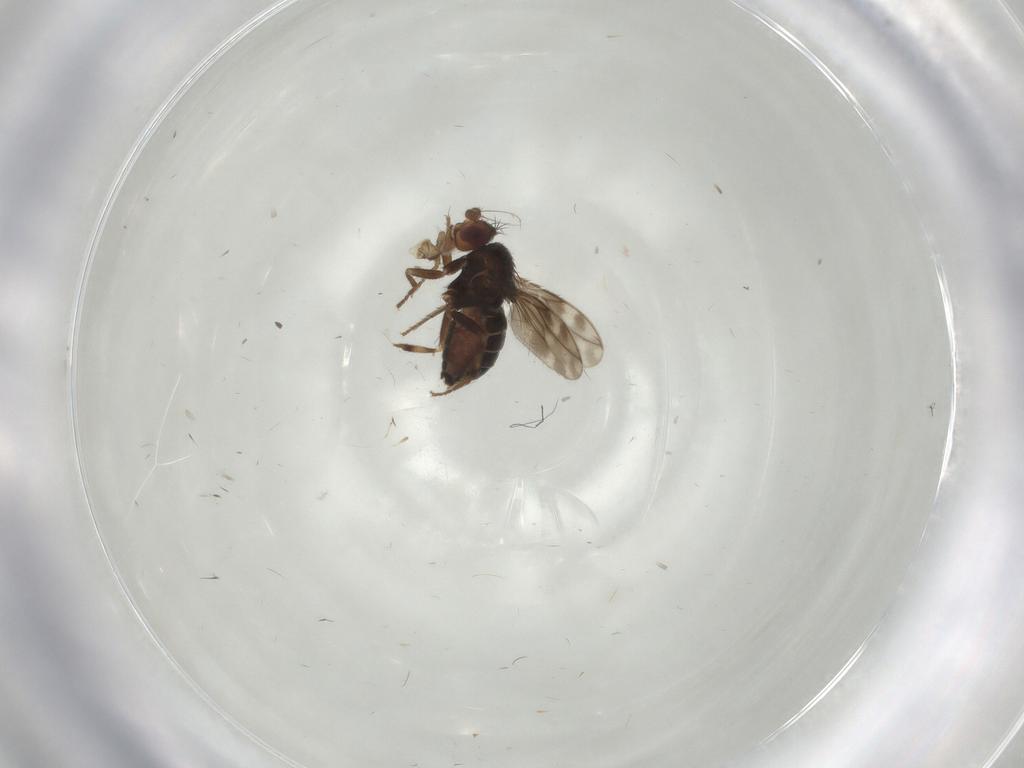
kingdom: Animalia
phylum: Arthropoda
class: Insecta
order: Diptera
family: Sphaeroceridae
